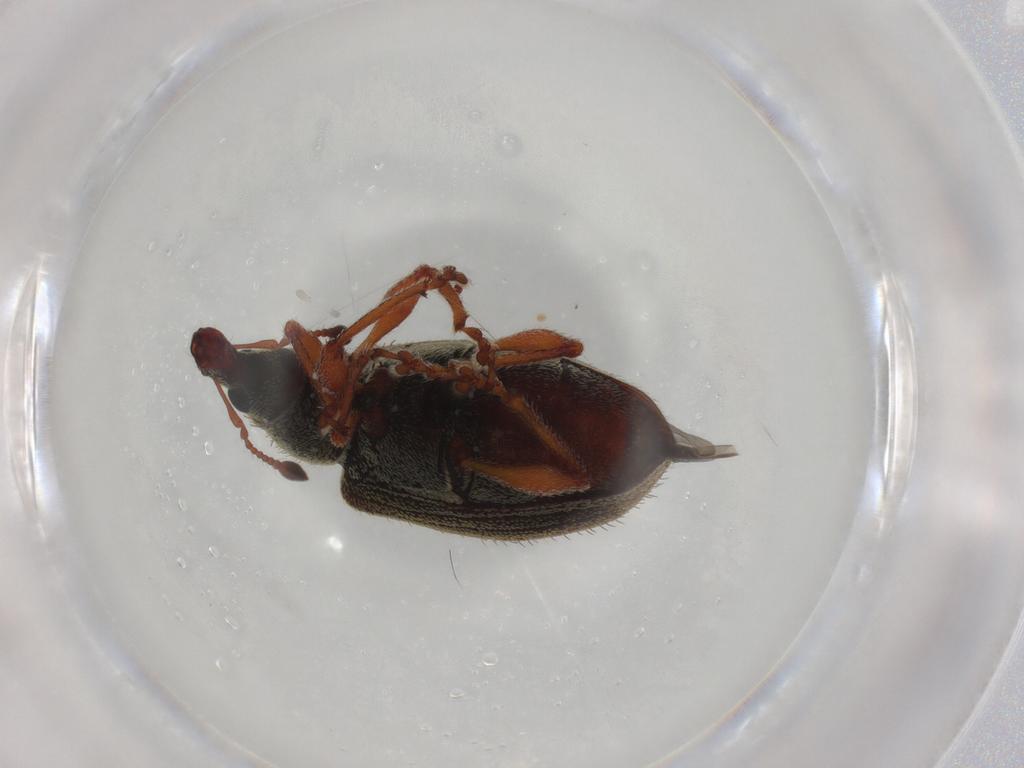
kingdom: Animalia
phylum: Arthropoda
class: Insecta
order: Coleoptera
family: Curculionidae
